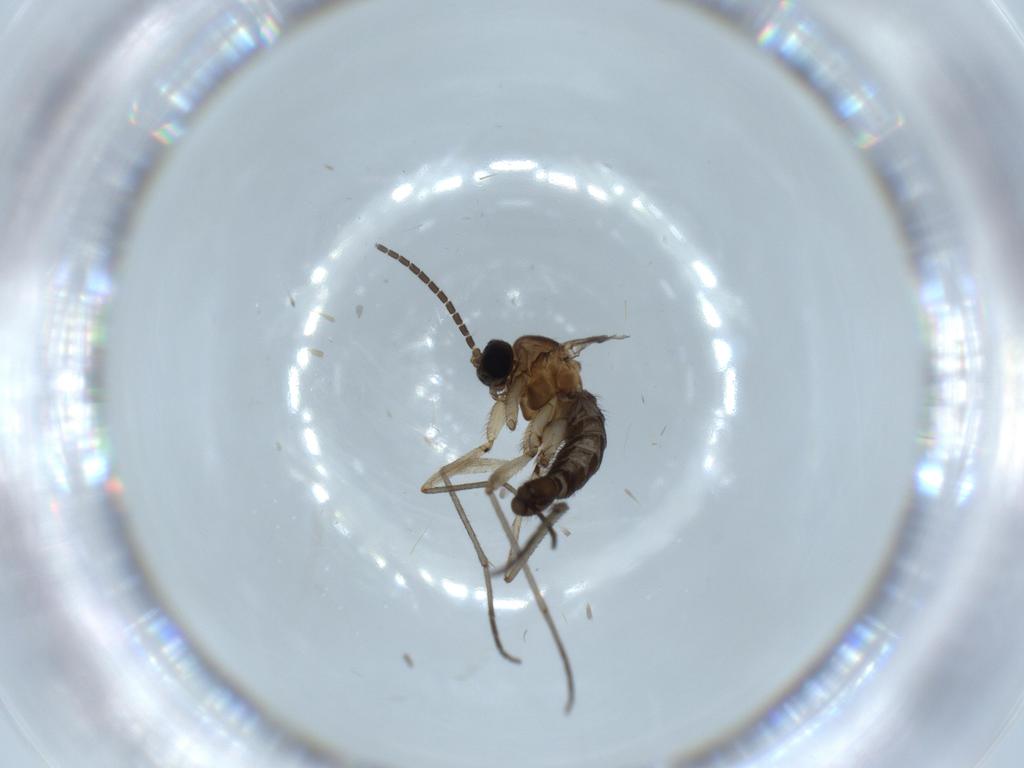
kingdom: Animalia
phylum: Arthropoda
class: Insecta
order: Diptera
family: Sciaridae
